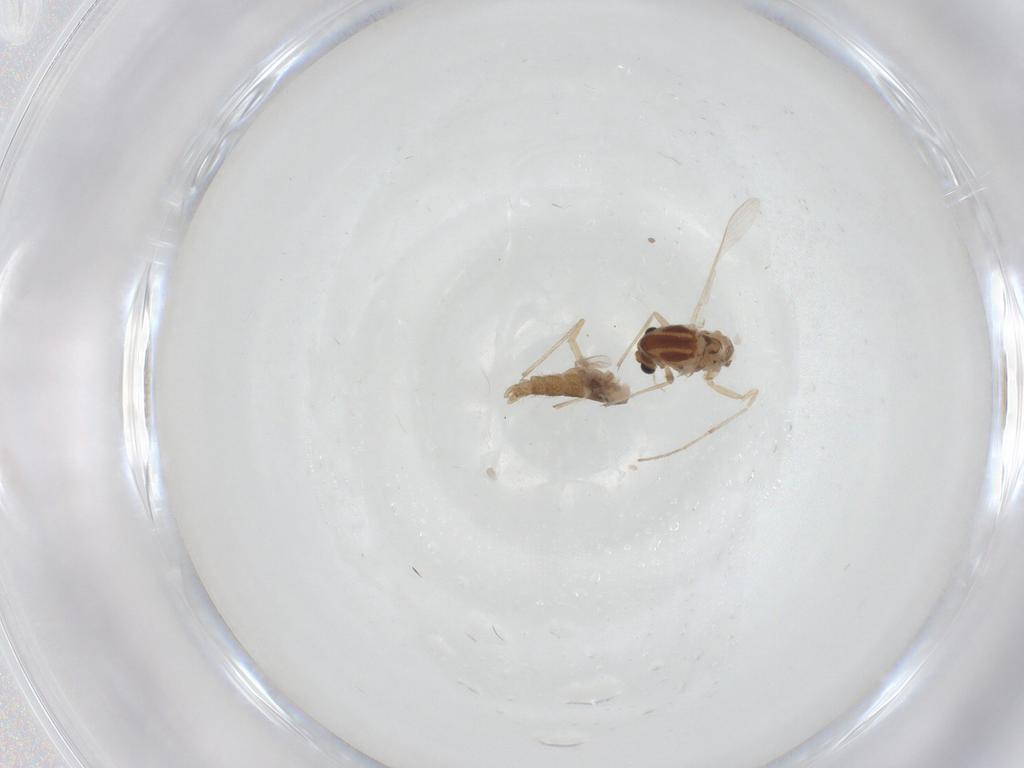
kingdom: Animalia
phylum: Arthropoda
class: Insecta
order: Diptera
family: Chironomidae
